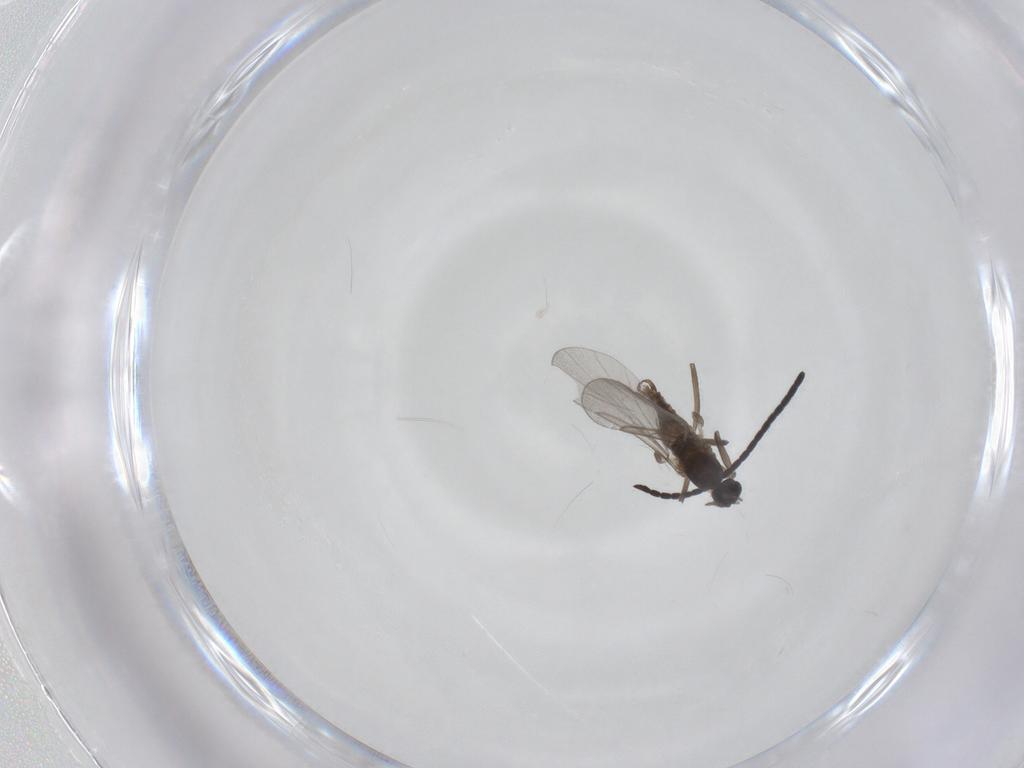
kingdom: Animalia
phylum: Arthropoda
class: Insecta
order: Diptera
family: Cecidomyiidae
